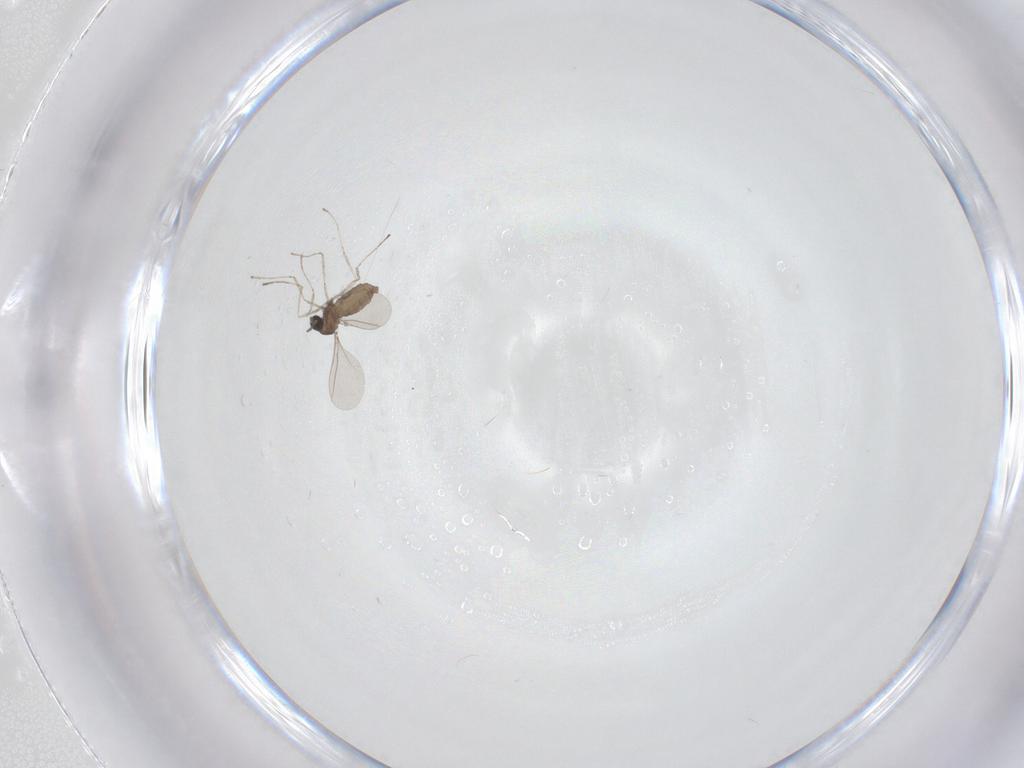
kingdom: Animalia
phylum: Arthropoda
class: Insecta
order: Diptera
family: Cecidomyiidae
